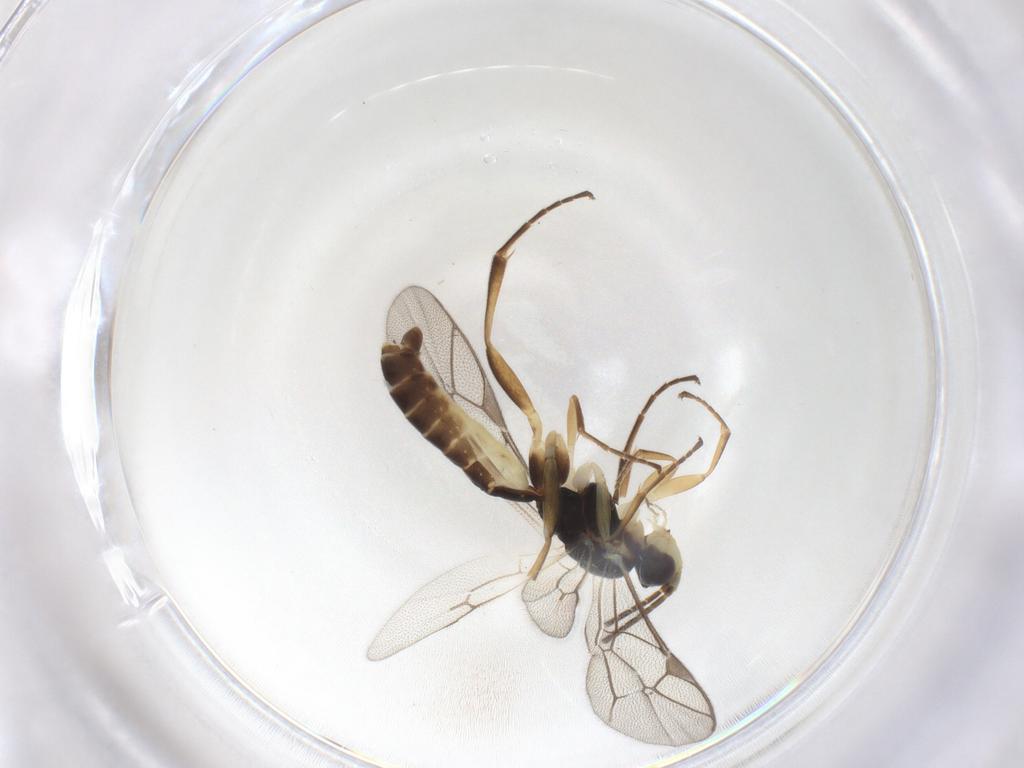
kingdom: Animalia
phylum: Arthropoda
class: Insecta
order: Hymenoptera
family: Ichneumonidae
